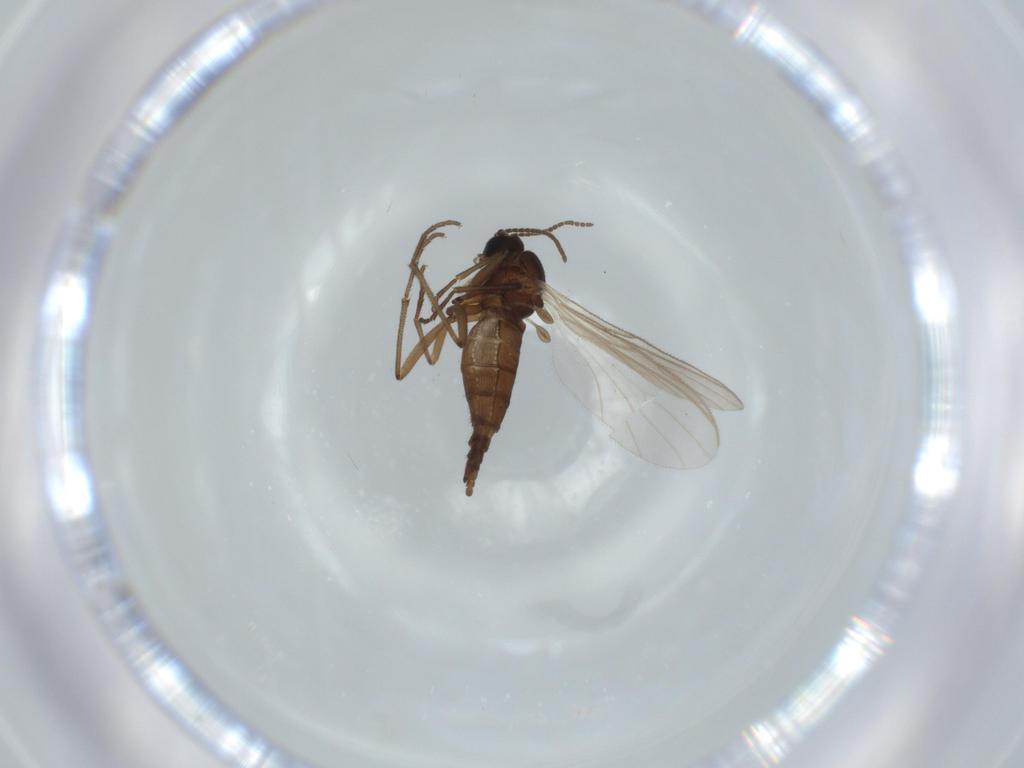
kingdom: Animalia
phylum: Arthropoda
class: Insecta
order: Diptera
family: Sciaridae
